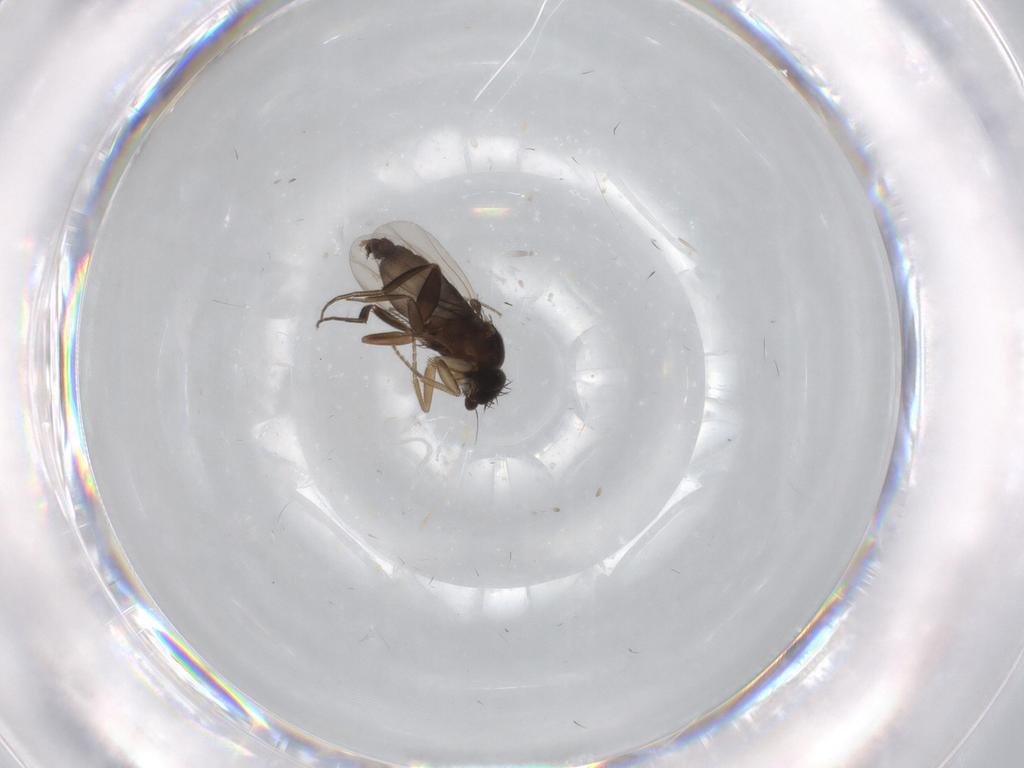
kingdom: Animalia
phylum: Arthropoda
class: Insecta
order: Diptera
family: Phoridae
